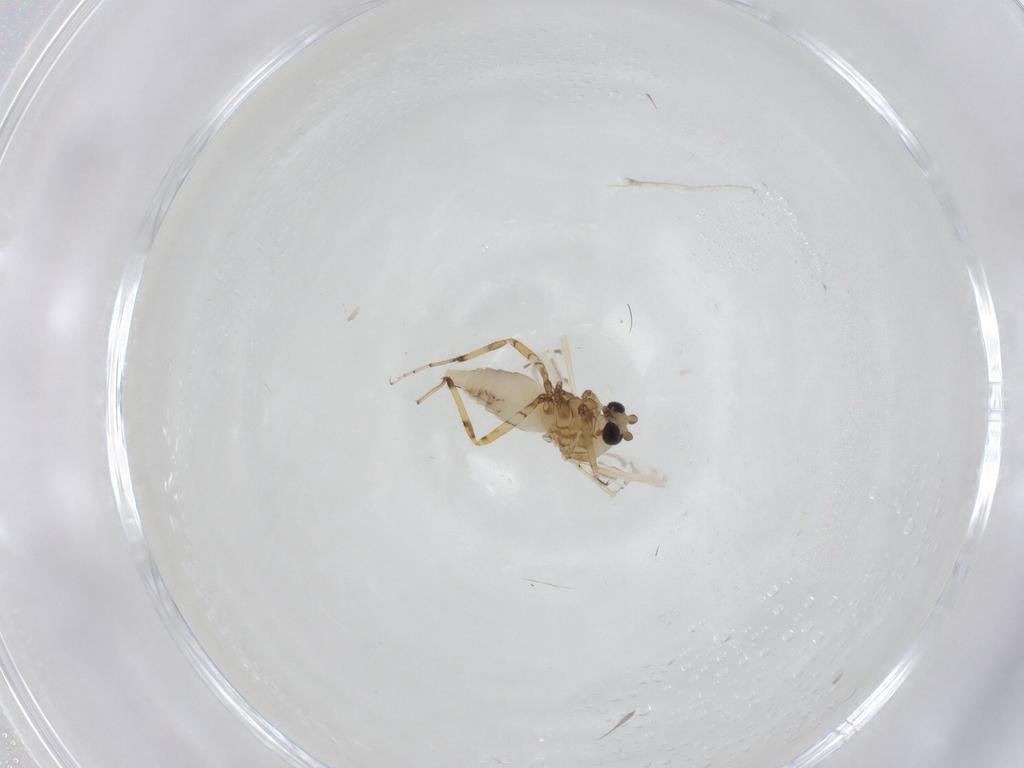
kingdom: Animalia
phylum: Arthropoda
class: Insecta
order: Diptera
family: Ceratopogonidae
